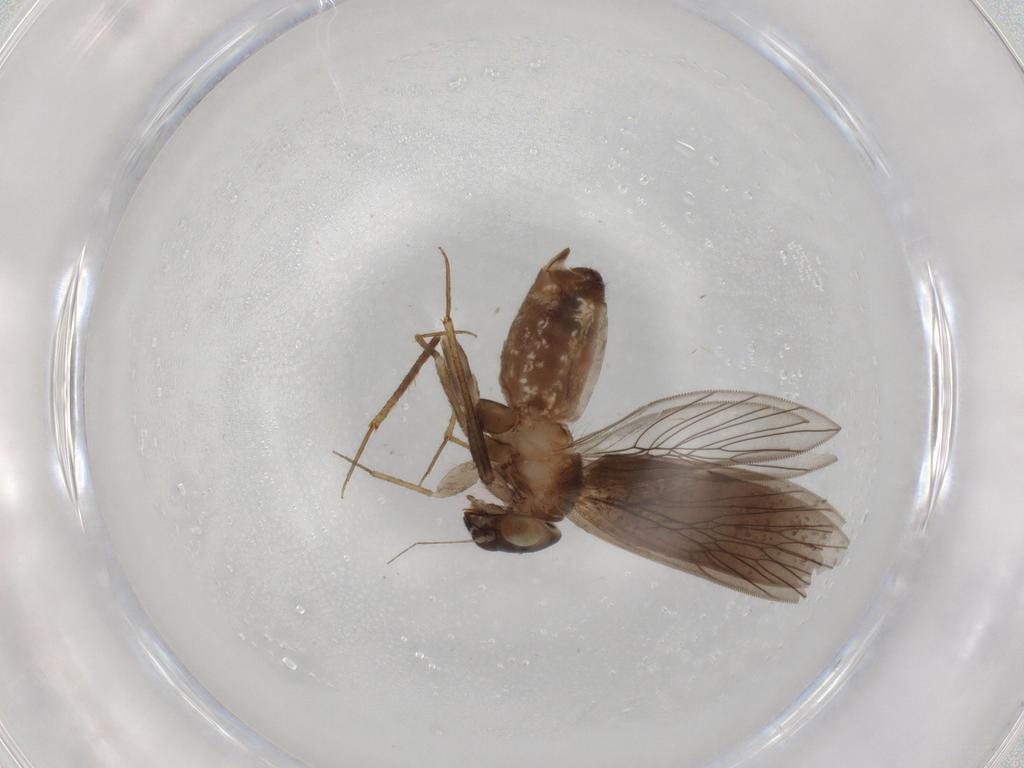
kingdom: Animalia
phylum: Arthropoda
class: Insecta
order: Psocodea
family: Lepidopsocidae
